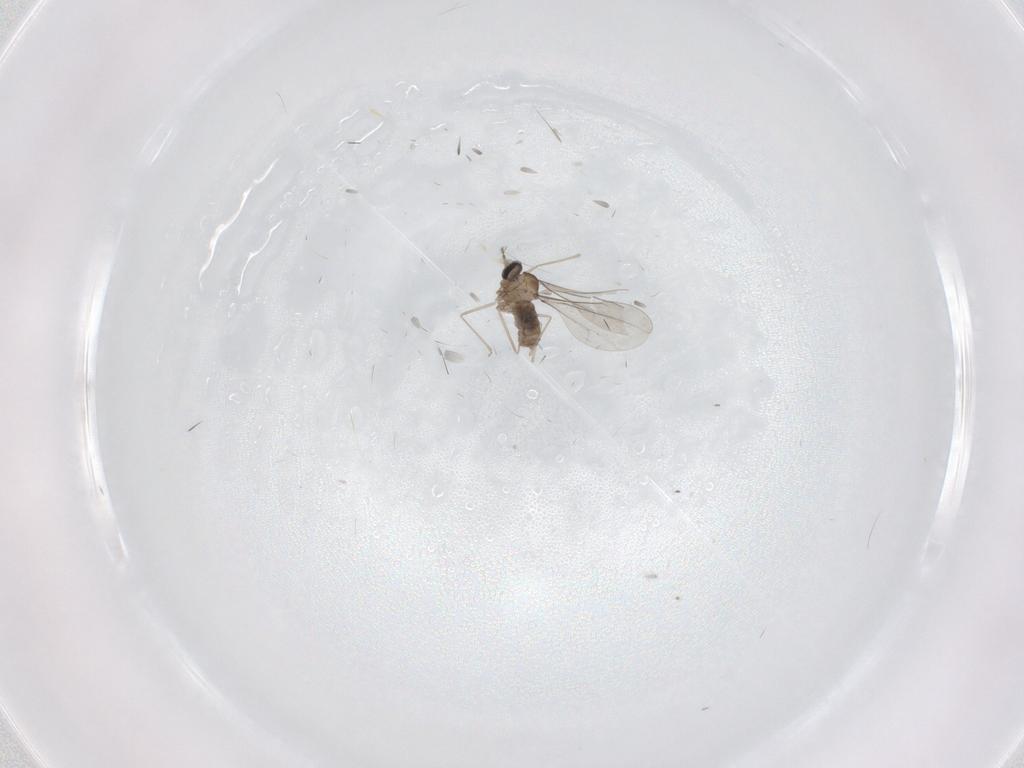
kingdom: Animalia
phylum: Arthropoda
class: Insecta
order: Diptera
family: Cecidomyiidae
